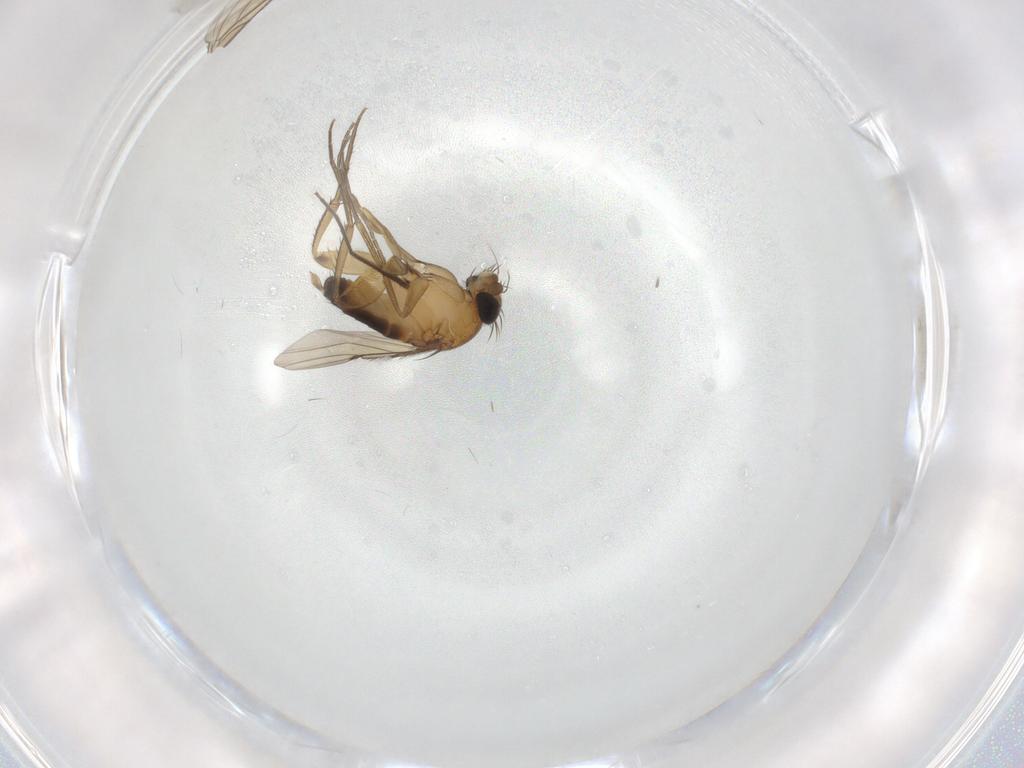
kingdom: Animalia
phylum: Arthropoda
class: Insecta
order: Diptera
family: Phoridae
